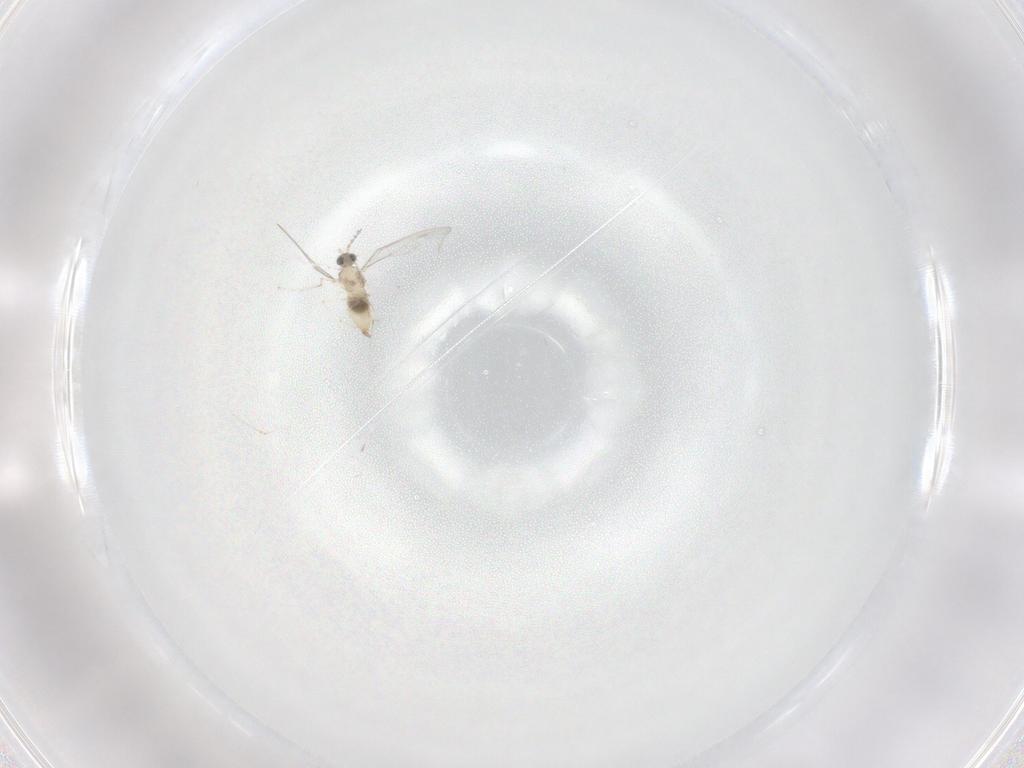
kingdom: Animalia
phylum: Arthropoda
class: Insecta
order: Diptera
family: Cecidomyiidae
